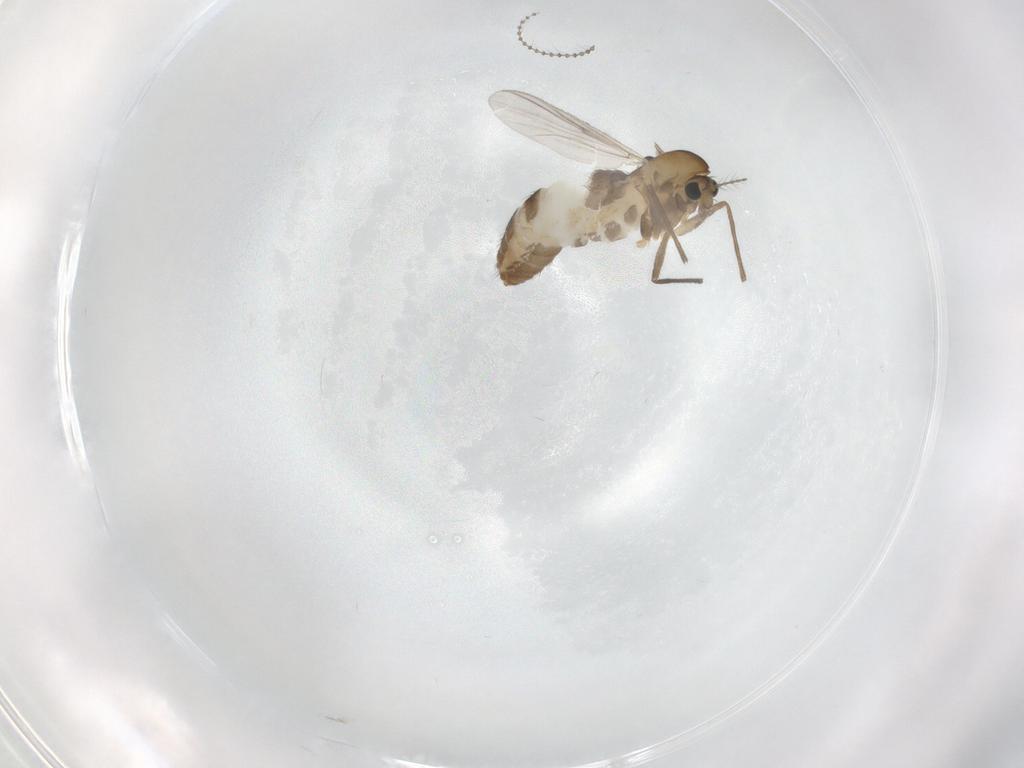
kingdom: Animalia
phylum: Arthropoda
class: Insecta
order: Diptera
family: Chironomidae
